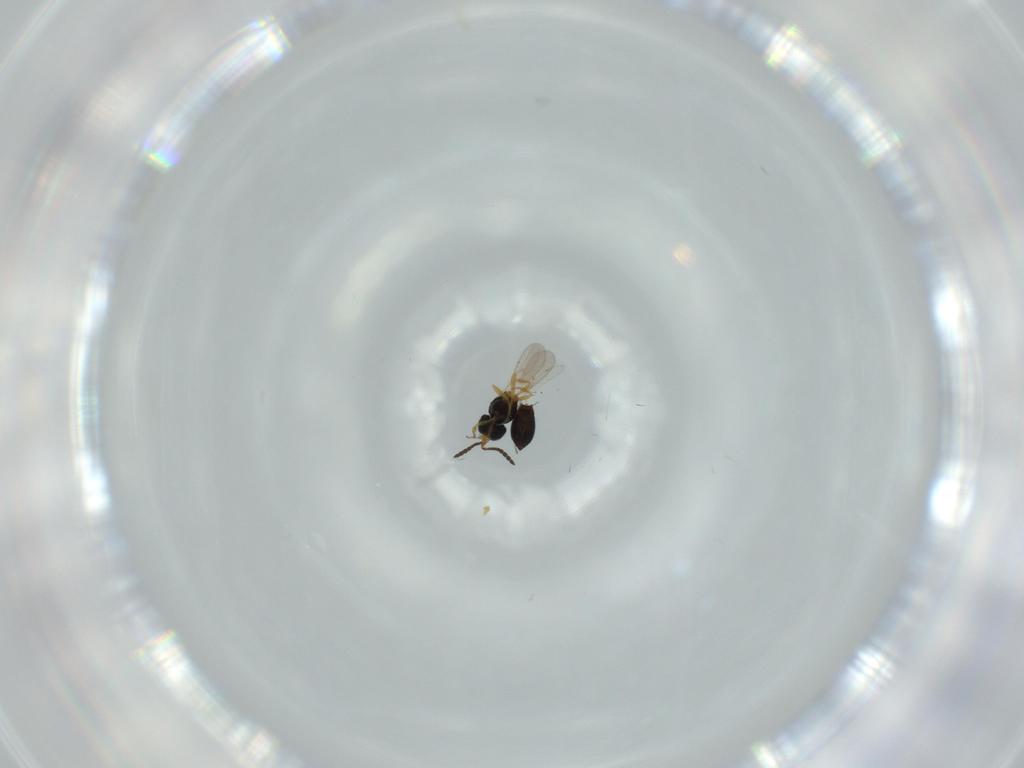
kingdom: Animalia
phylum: Arthropoda
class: Insecta
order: Hymenoptera
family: Scelionidae
